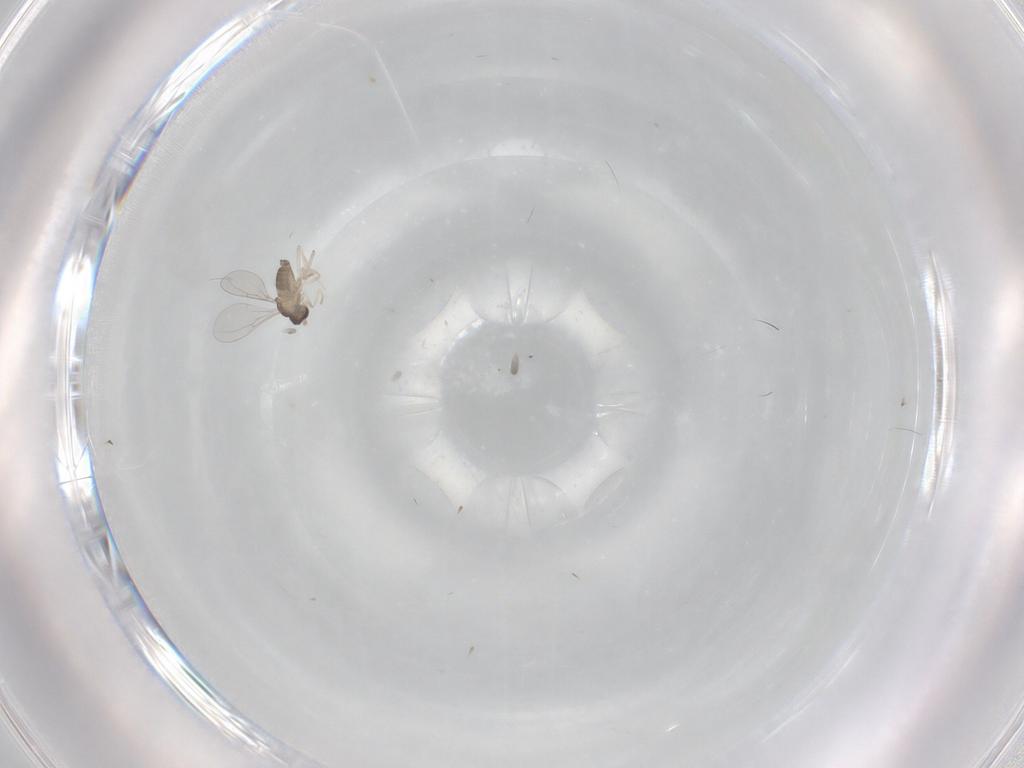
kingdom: Animalia
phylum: Arthropoda
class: Insecta
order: Diptera
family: Cecidomyiidae
